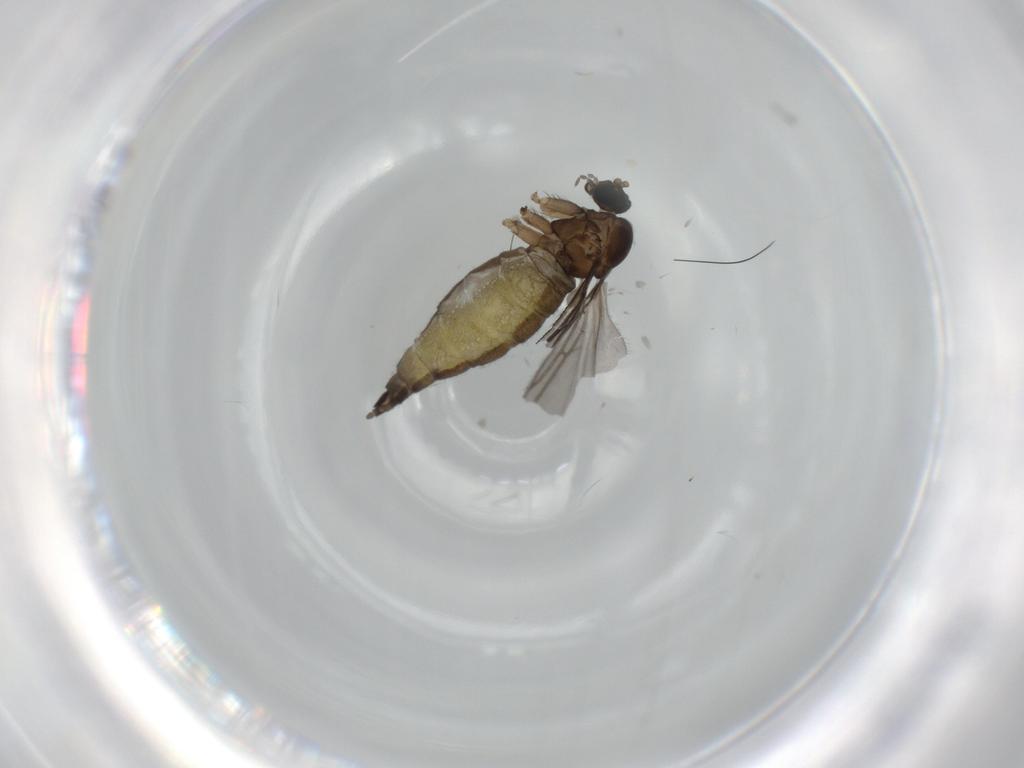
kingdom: Animalia
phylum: Arthropoda
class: Insecta
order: Diptera
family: Sciaridae
